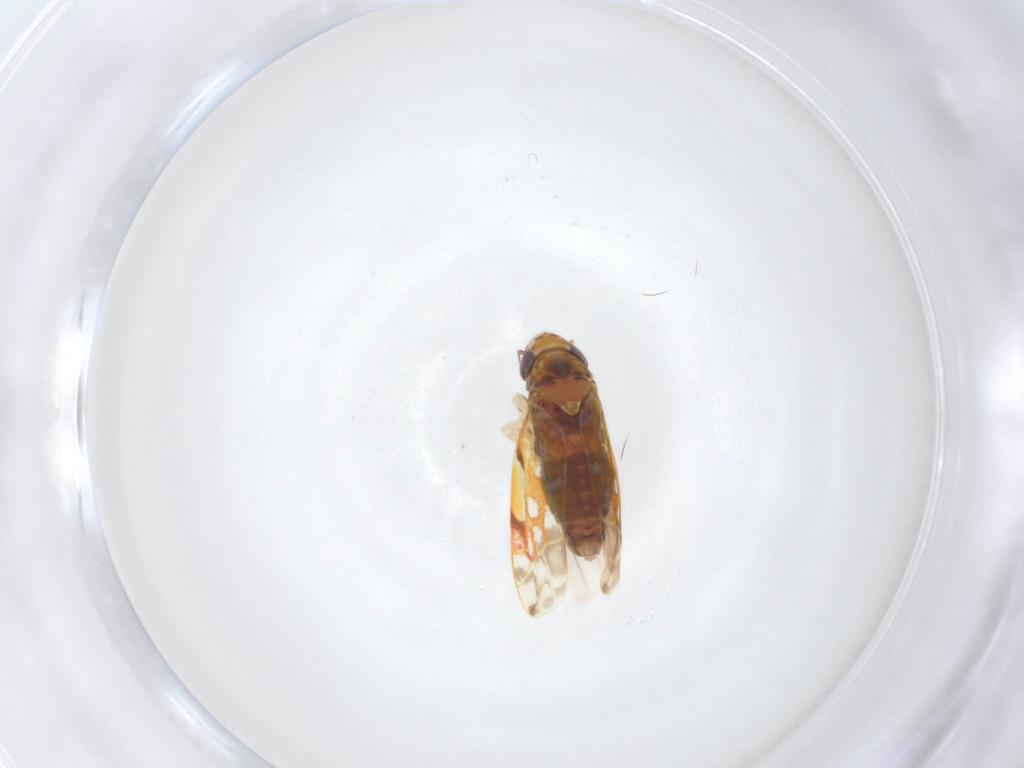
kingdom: Animalia
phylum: Arthropoda
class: Insecta
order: Hemiptera
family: Cicadellidae
